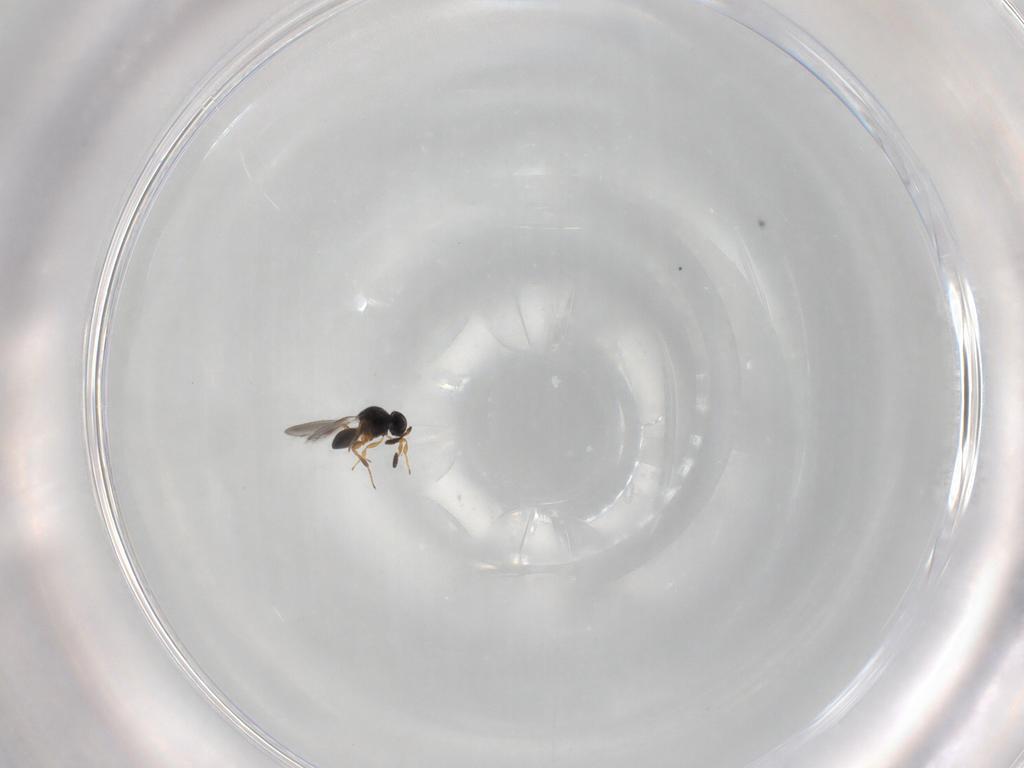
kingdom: Animalia
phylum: Arthropoda
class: Insecta
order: Hymenoptera
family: Platygastridae
